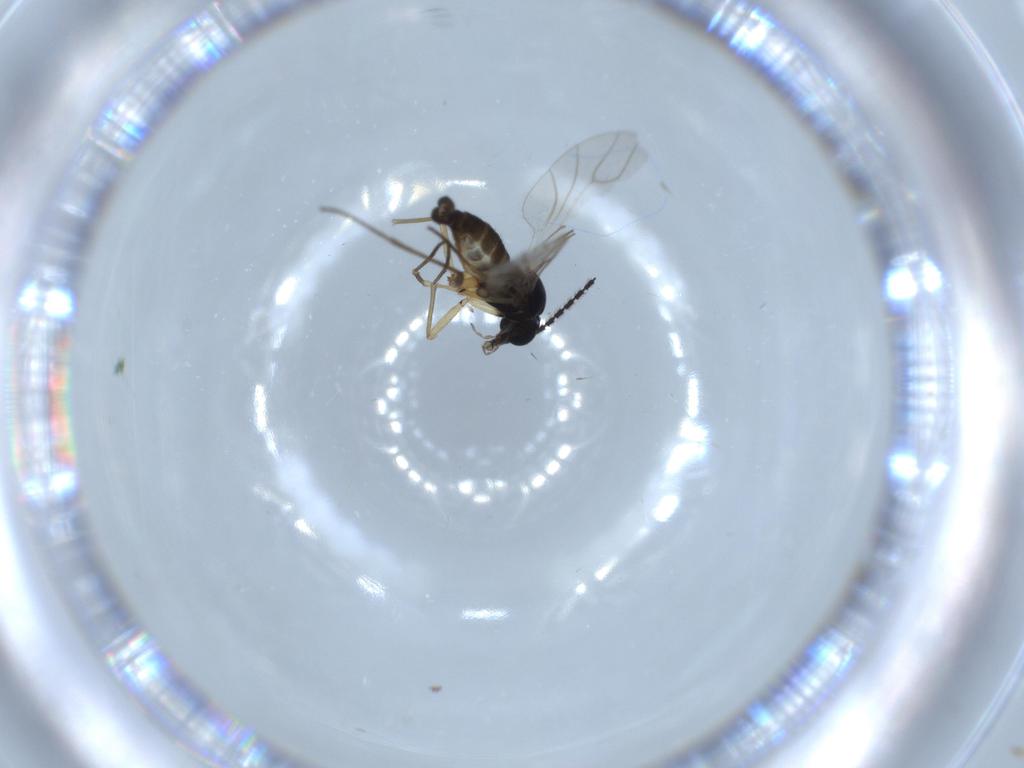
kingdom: Animalia
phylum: Arthropoda
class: Insecta
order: Diptera
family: Sciaridae
